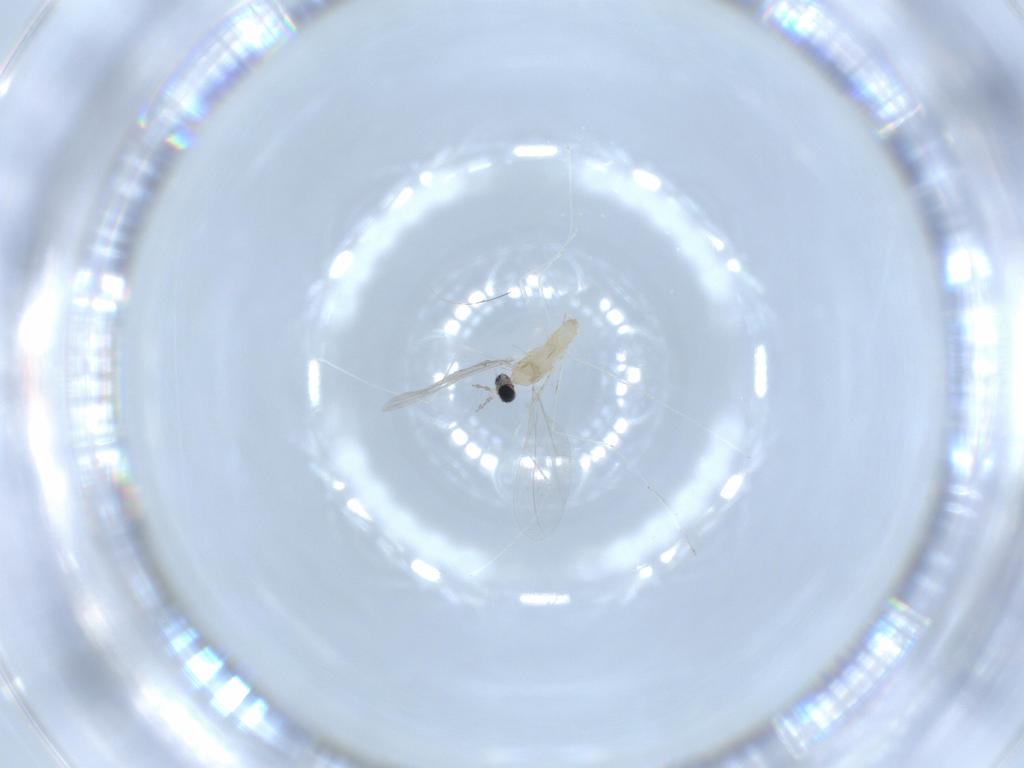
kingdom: Animalia
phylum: Arthropoda
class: Insecta
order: Diptera
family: Cecidomyiidae
